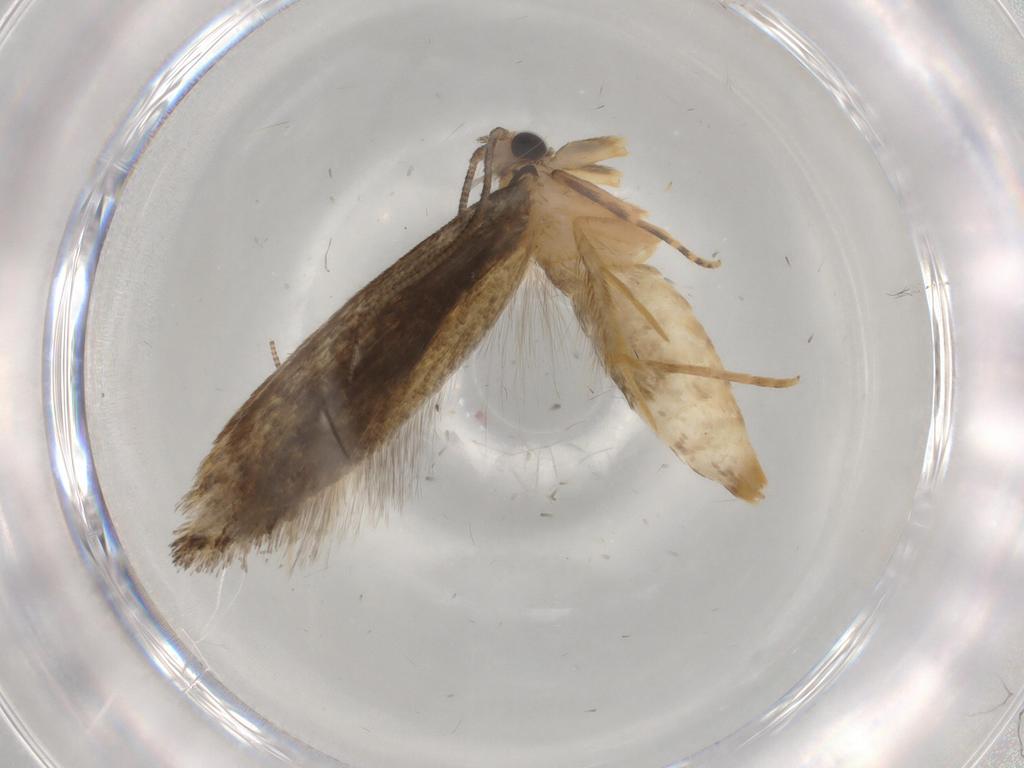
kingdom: Animalia
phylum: Arthropoda
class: Insecta
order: Lepidoptera
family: Tineidae
